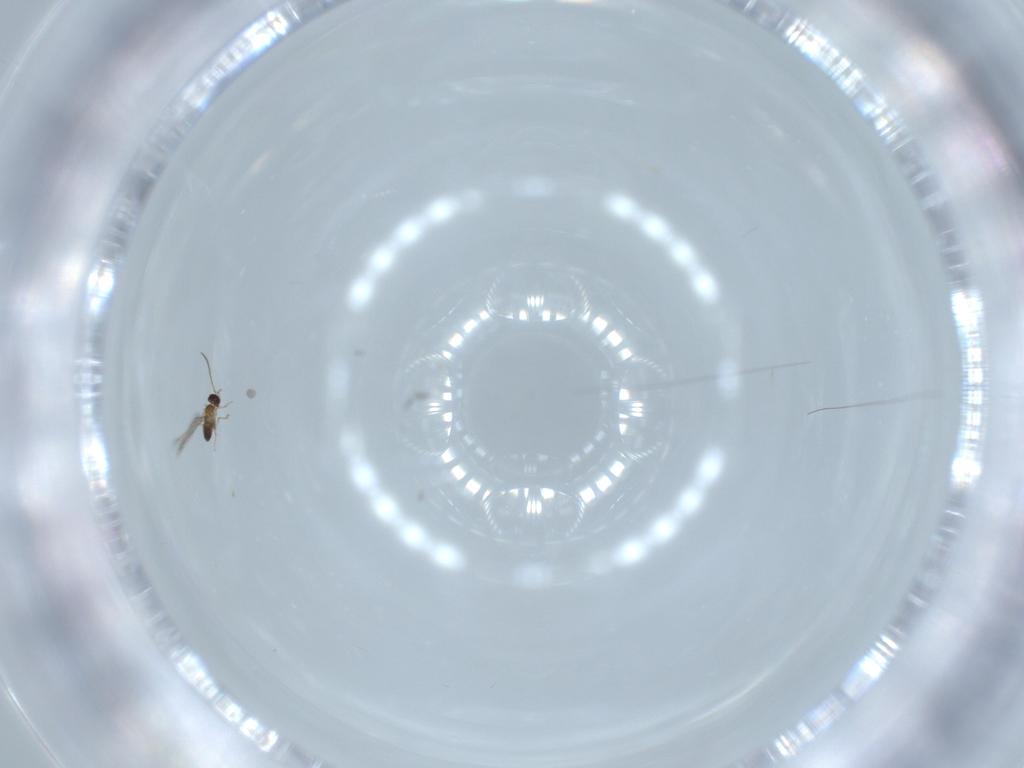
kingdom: Animalia
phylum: Arthropoda
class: Insecta
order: Hymenoptera
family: Mymaridae
